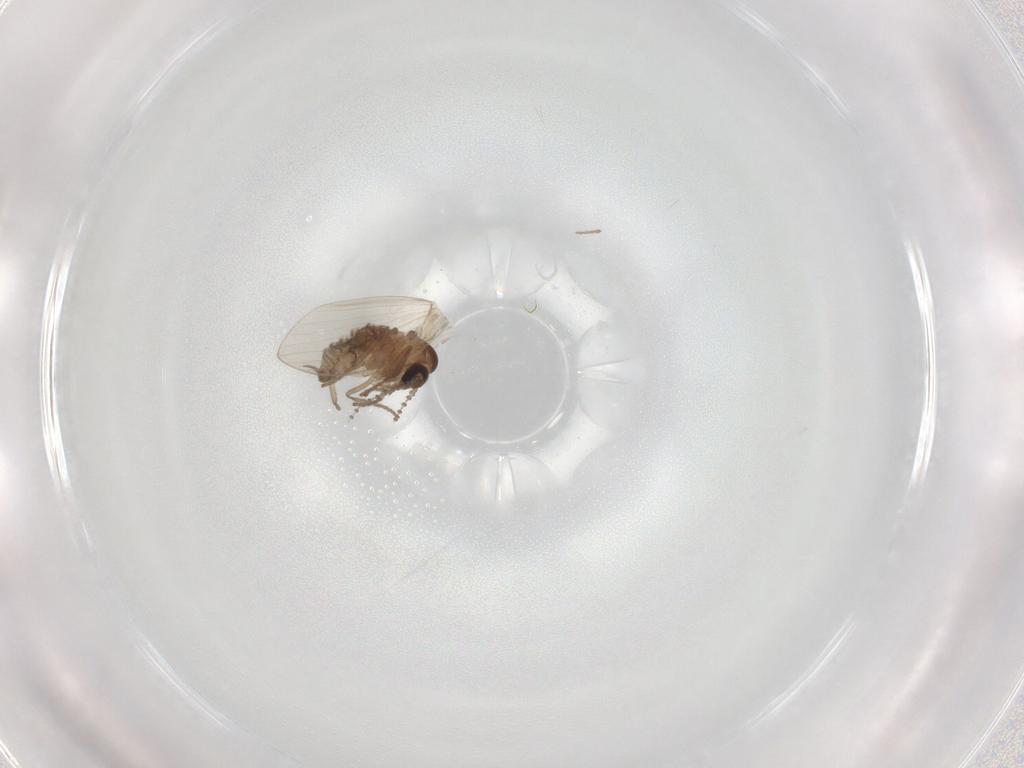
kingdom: Animalia
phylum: Arthropoda
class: Insecta
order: Diptera
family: Psychodidae
